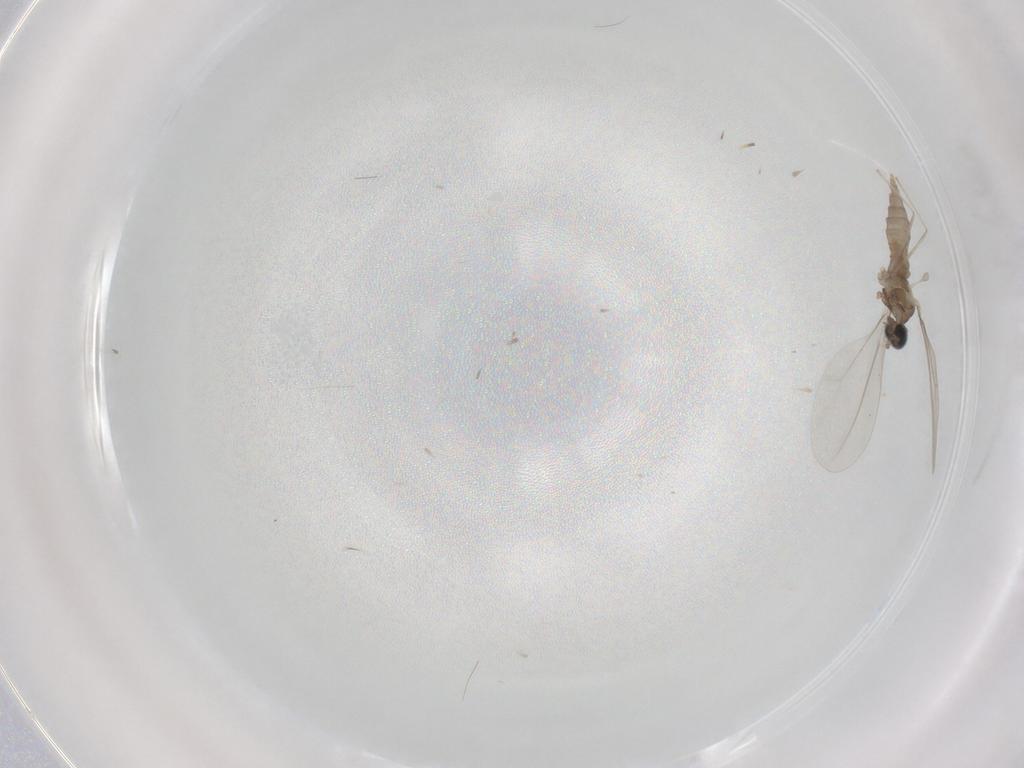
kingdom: Animalia
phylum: Arthropoda
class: Insecta
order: Diptera
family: Cecidomyiidae
